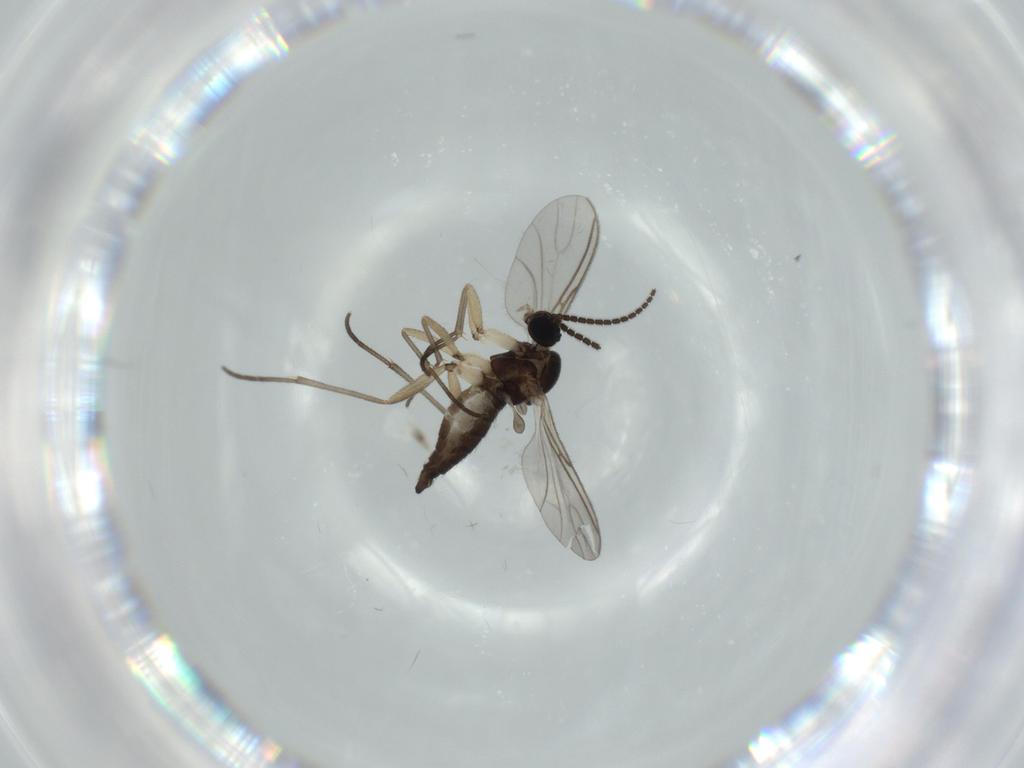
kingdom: Animalia
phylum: Arthropoda
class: Insecta
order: Diptera
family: Sciaridae
